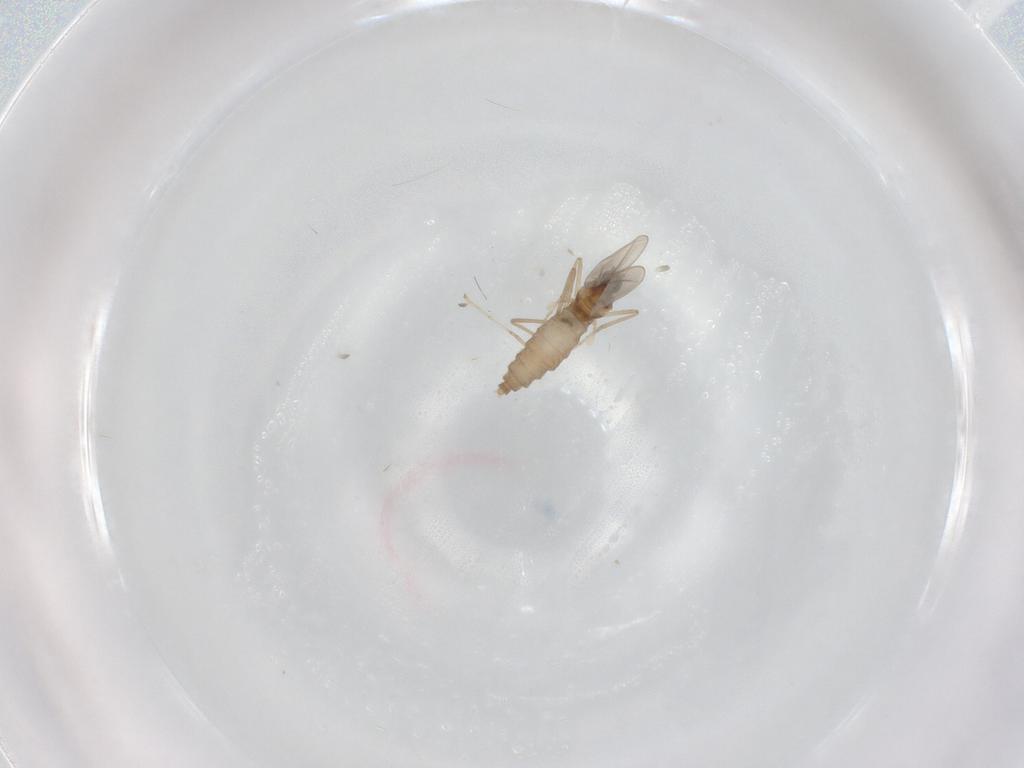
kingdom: Animalia
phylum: Arthropoda
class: Insecta
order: Diptera
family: Cecidomyiidae
